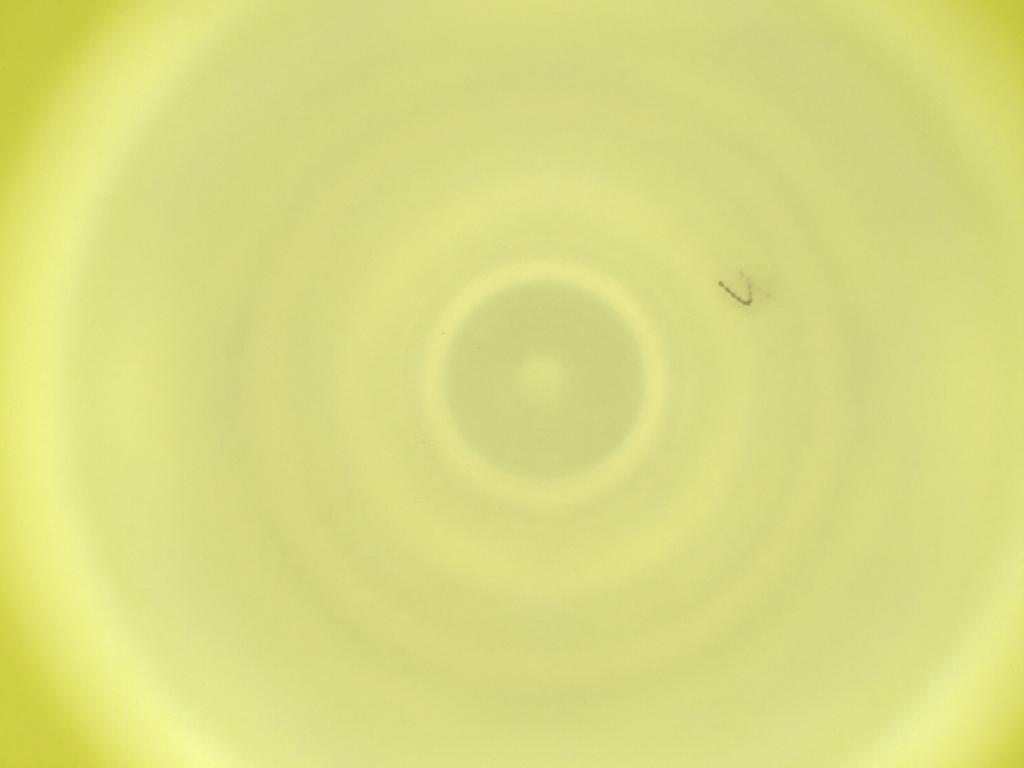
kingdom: Animalia
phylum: Arthropoda
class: Insecta
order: Diptera
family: Cecidomyiidae
